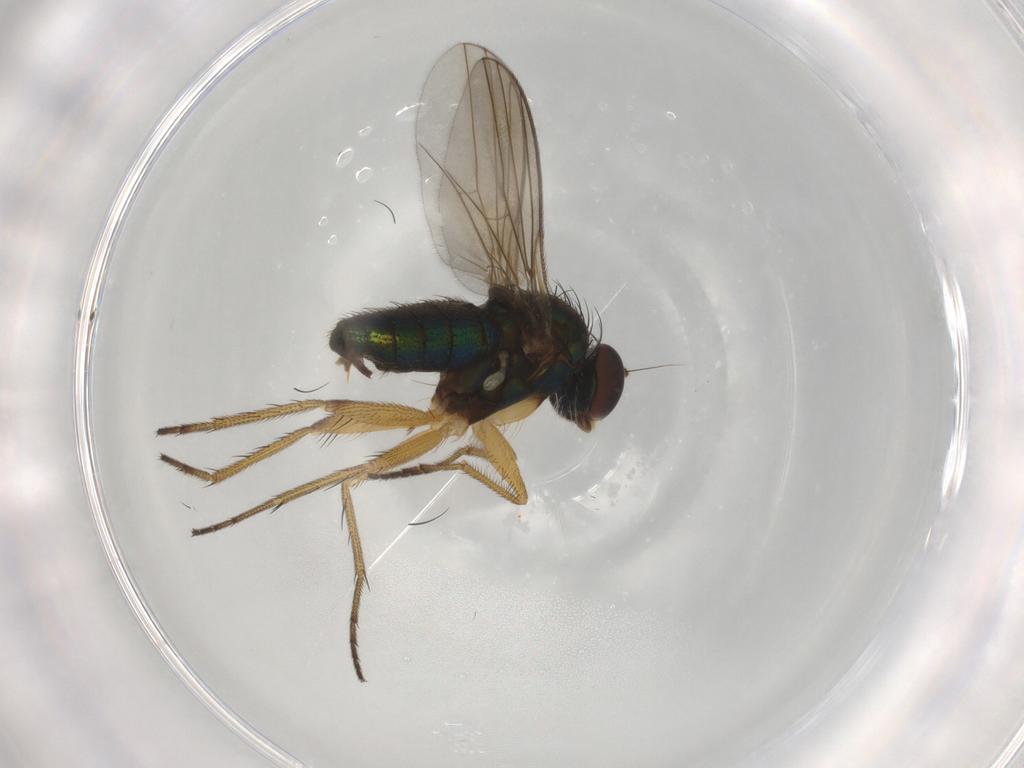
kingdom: Animalia
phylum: Arthropoda
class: Insecta
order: Diptera
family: Dolichopodidae
